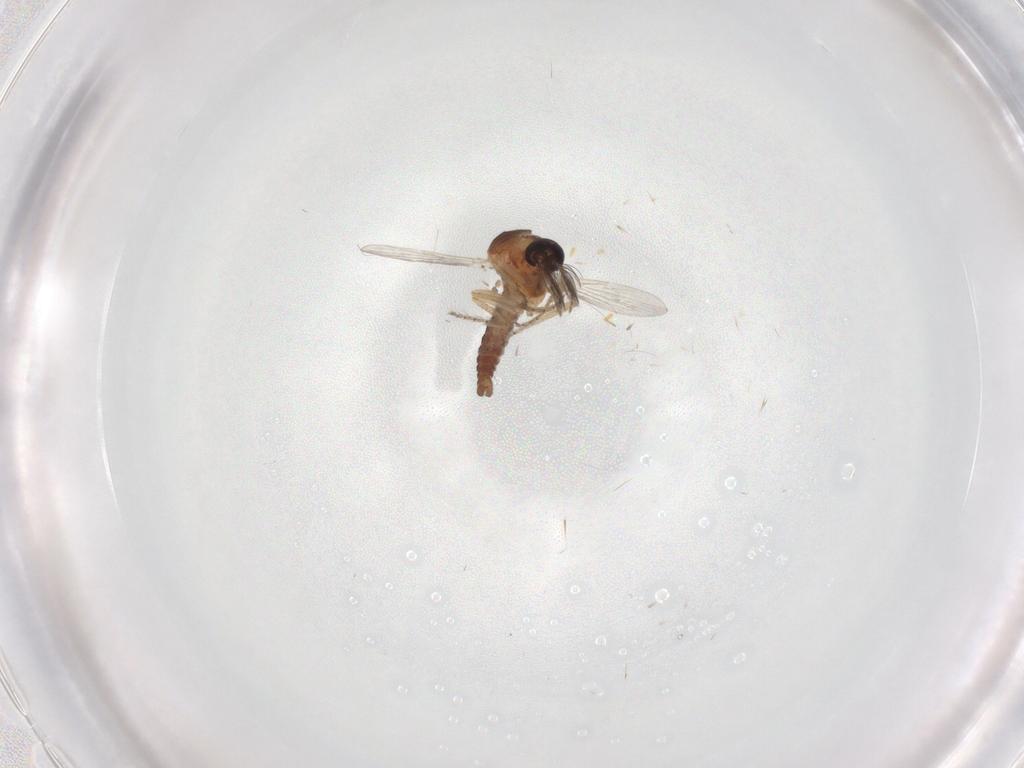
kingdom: Animalia
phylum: Arthropoda
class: Insecta
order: Diptera
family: Ceratopogonidae
